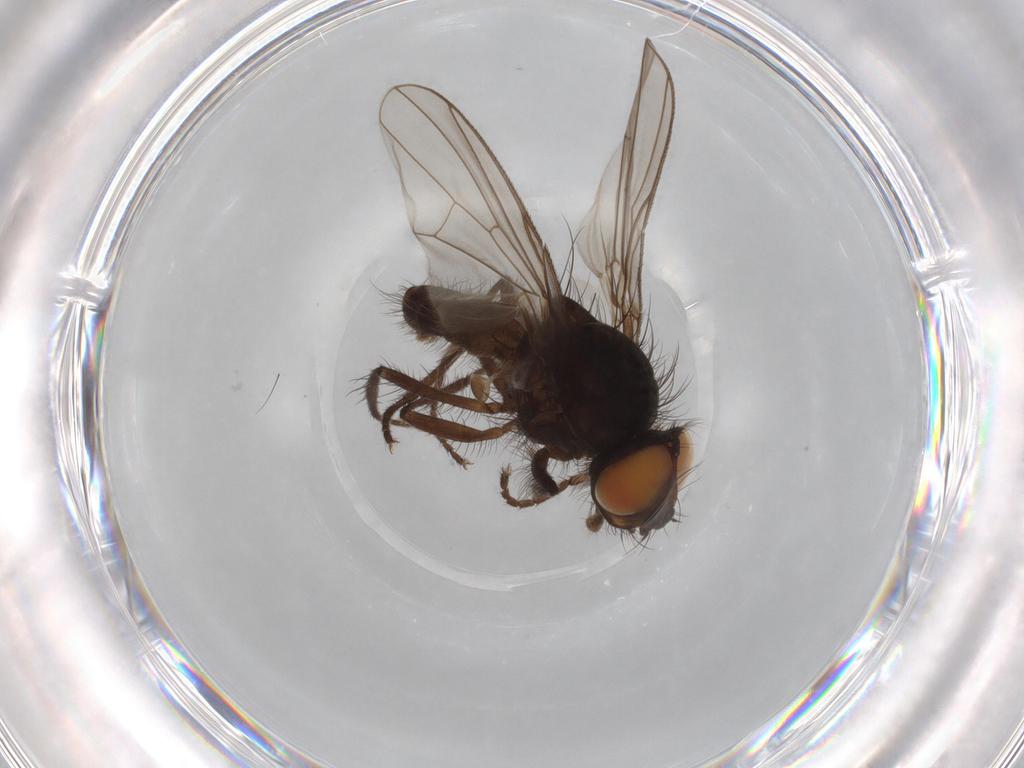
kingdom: Animalia
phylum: Arthropoda
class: Insecta
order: Diptera
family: Anthomyiidae
